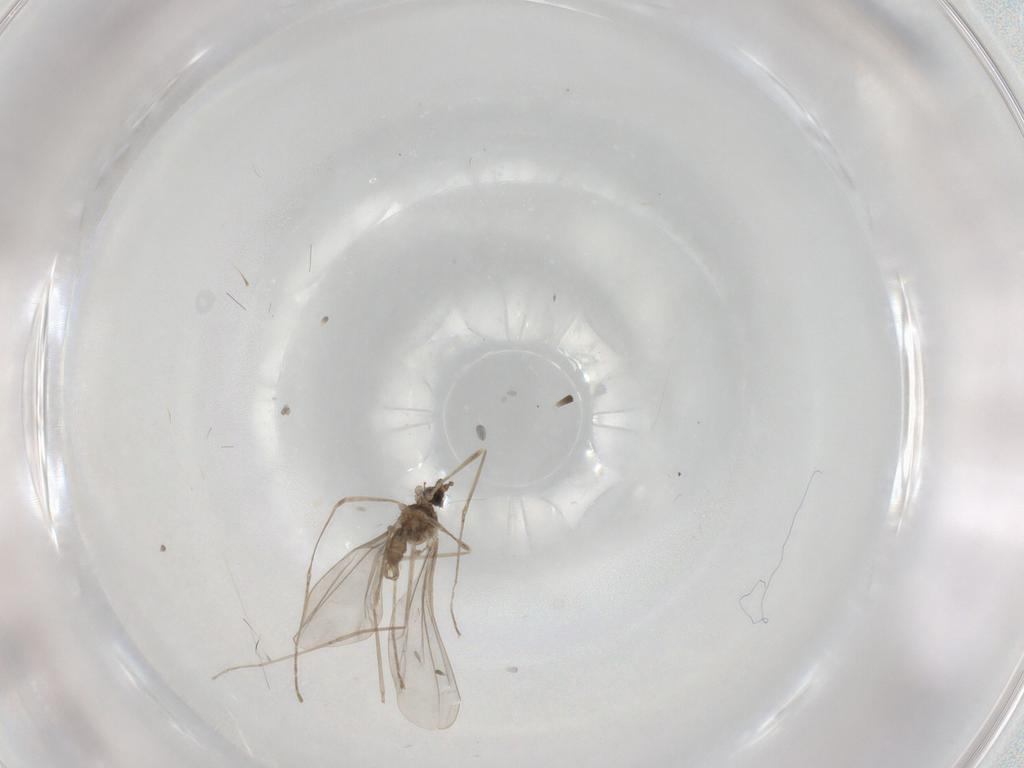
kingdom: Animalia
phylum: Arthropoda
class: Insecta
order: Diptera
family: Cecidomyiidae
